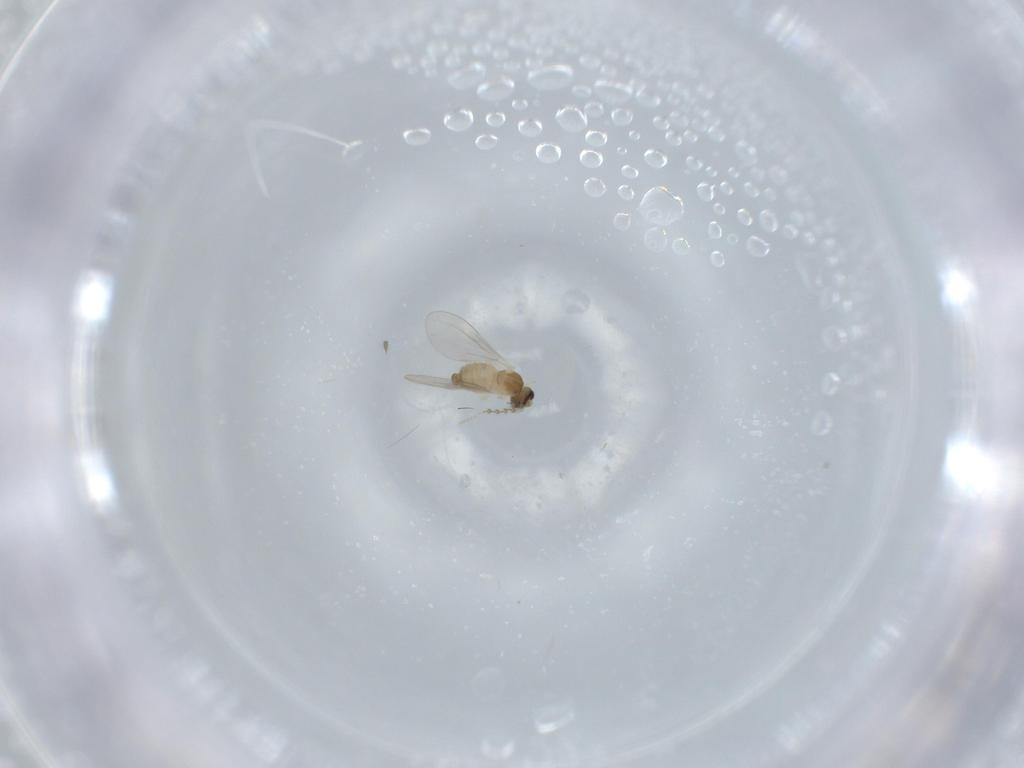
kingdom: Animalia
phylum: Arthropoda
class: Insecta
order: Diptera
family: Cecidomyiidae
